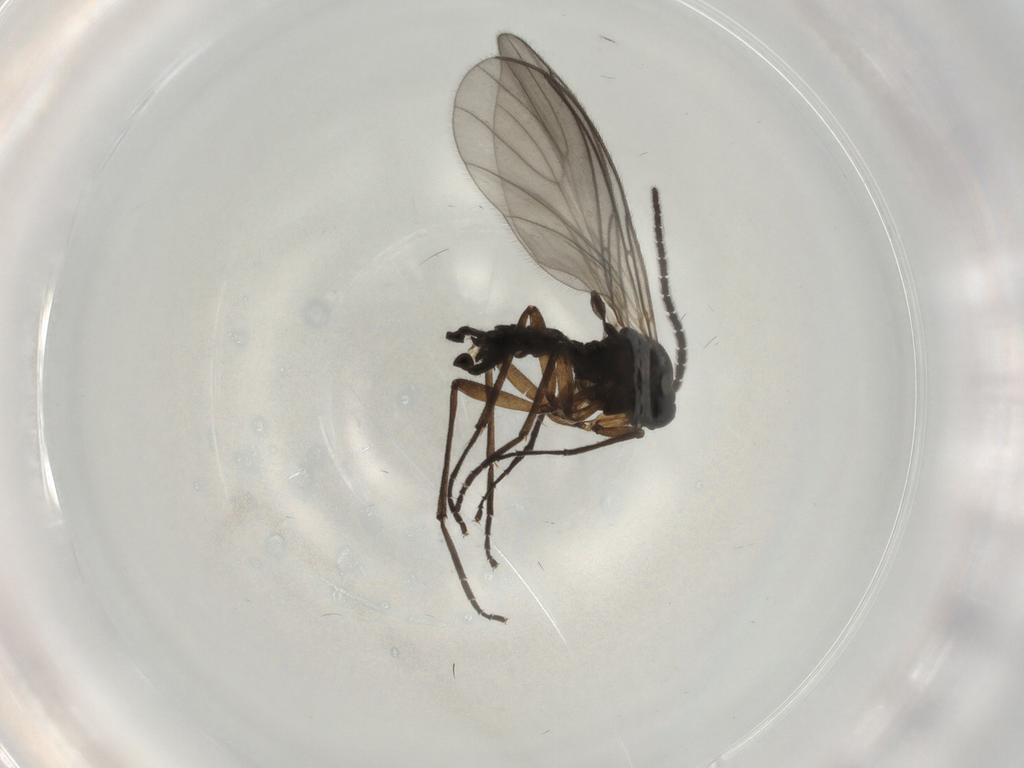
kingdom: Animalia
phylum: Arthropoda
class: Insecta
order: Diptera
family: Sciaridae
